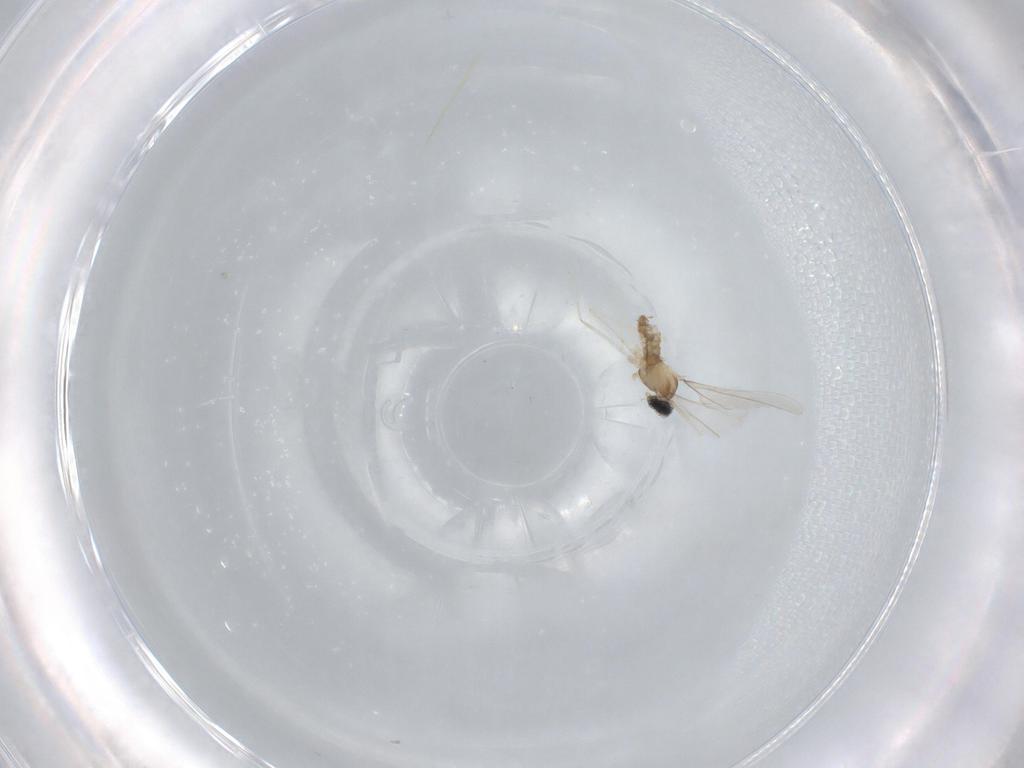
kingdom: Animalia
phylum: Arthropoda
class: Insecta
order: Diptera
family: Cecidomyiidae
